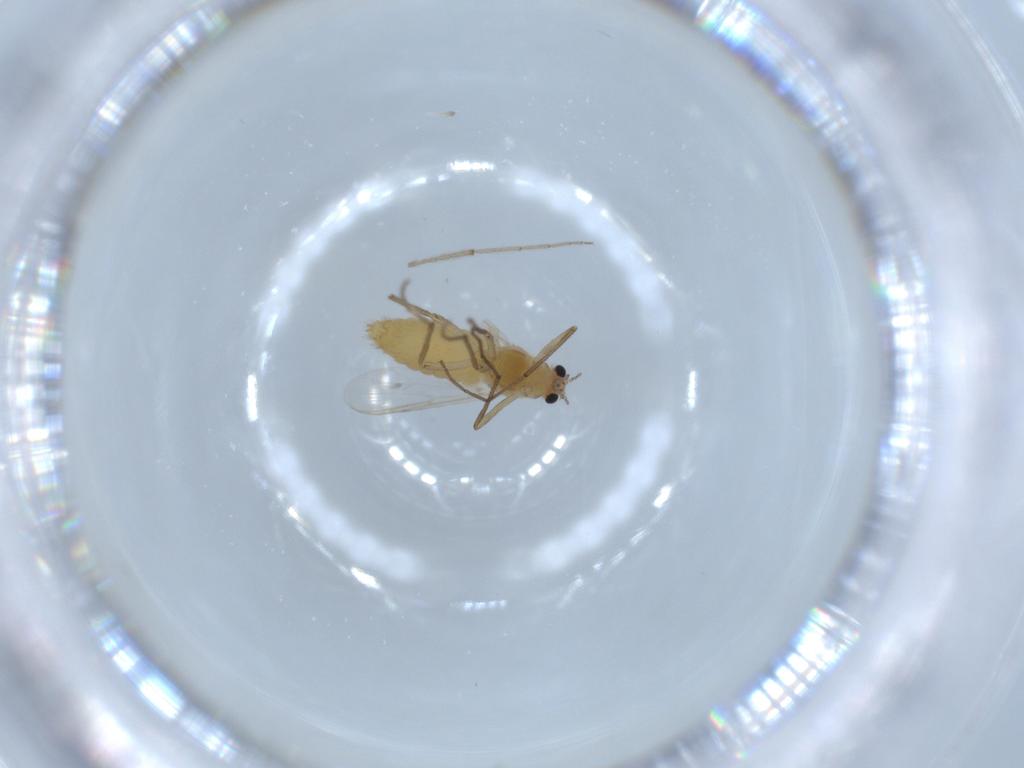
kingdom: Animalia
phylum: Arthropoda
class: Insecta
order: Diptera
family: Chironomidae
